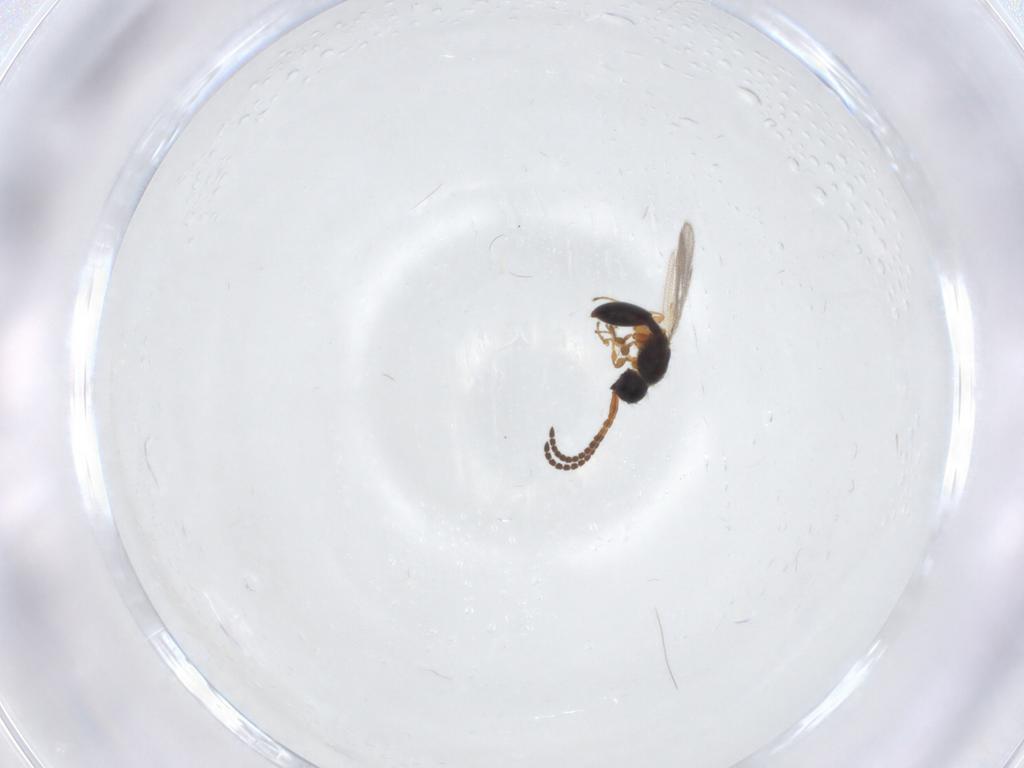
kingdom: Animalia
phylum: Arthropoda
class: Insecta
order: Hymenoptera
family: Diapriidae
